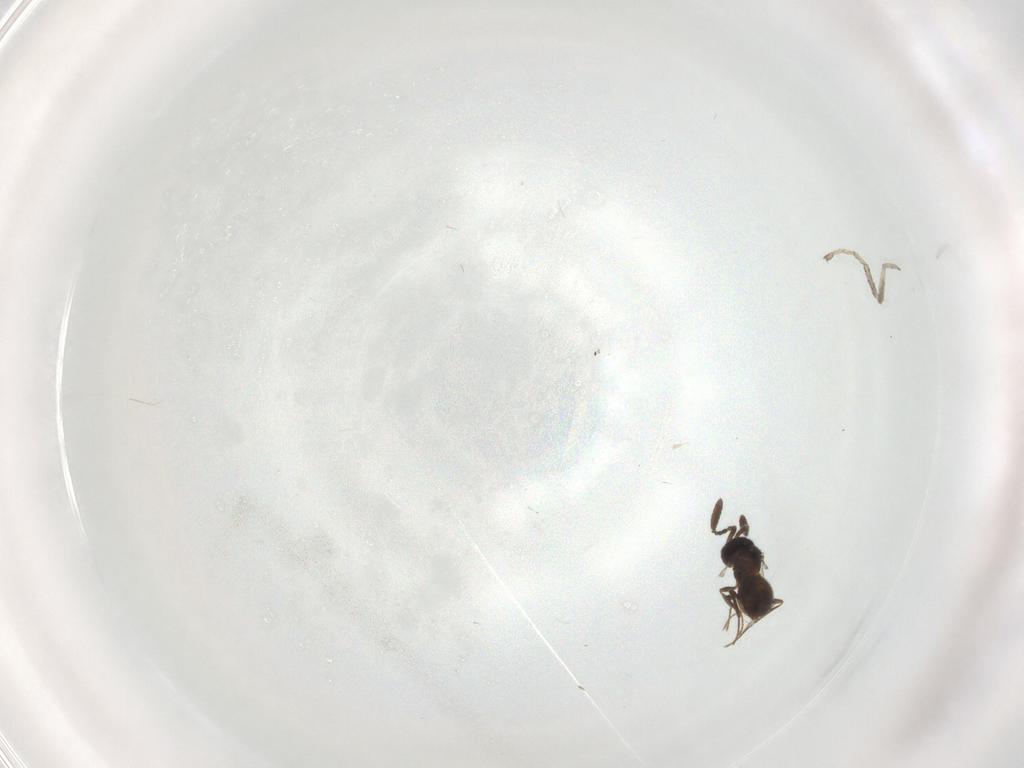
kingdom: Animalia
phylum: Arthropoda
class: Insecta
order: Hymenoptera
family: Scelionidae
